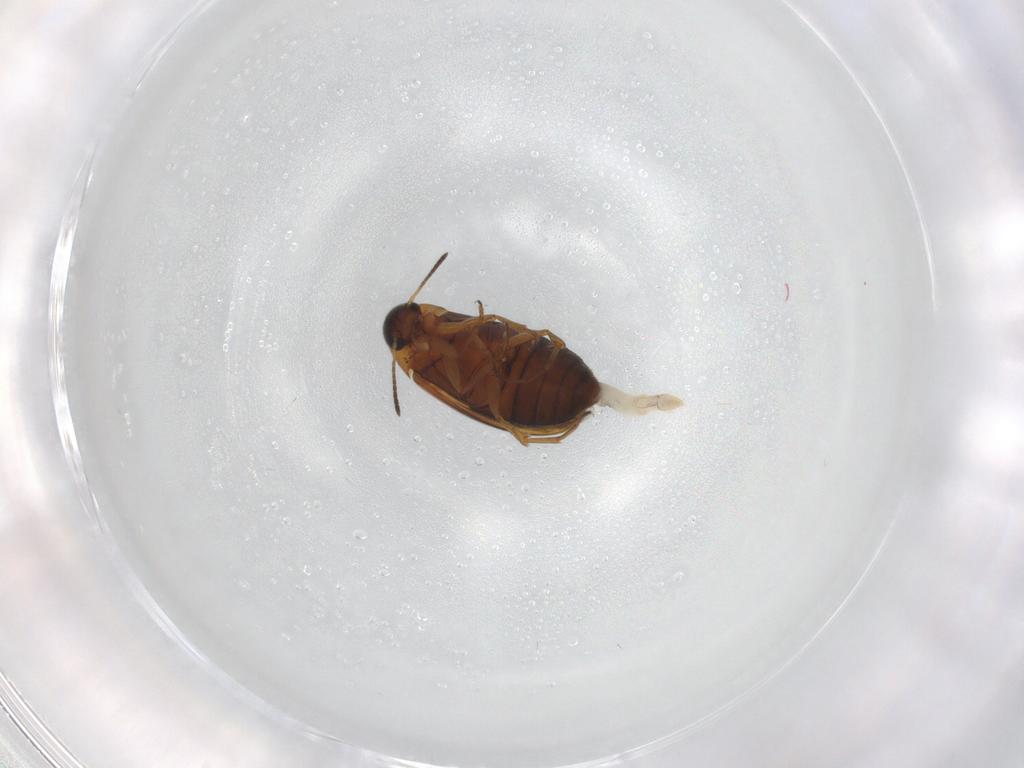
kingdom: Animalia
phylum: Arthropoda
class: Insecta
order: Coleoptera
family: Scraptiidae
